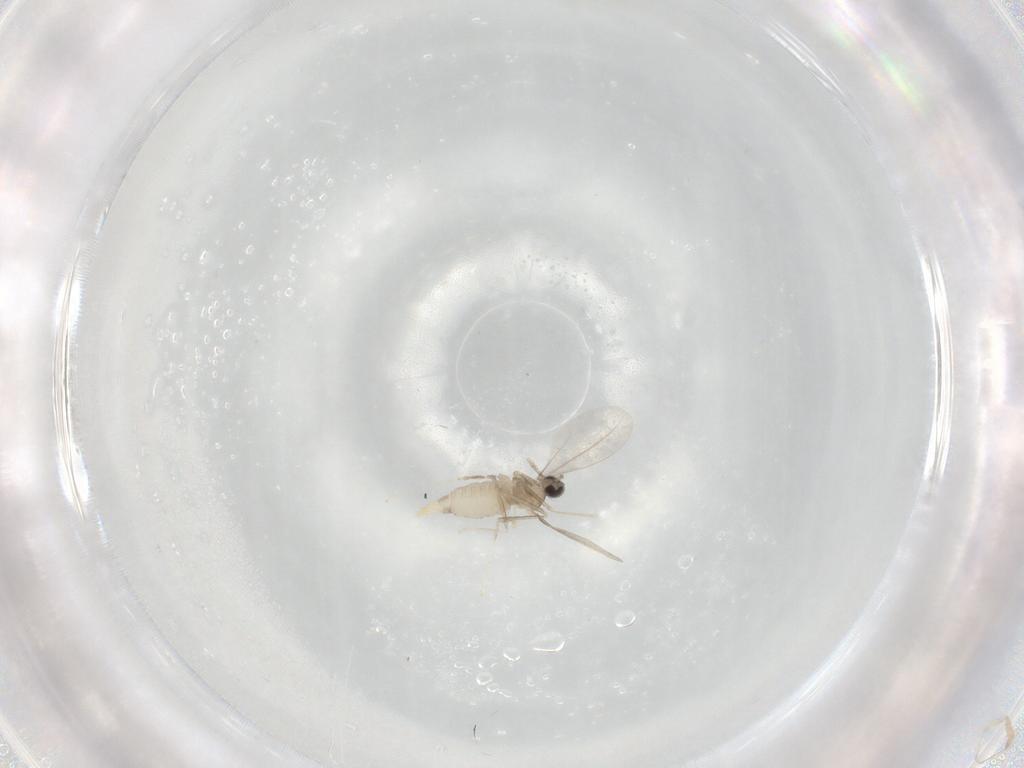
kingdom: Animalia
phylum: Arthropoda
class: Insecta
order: Diptera
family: Cecidomyiidae
